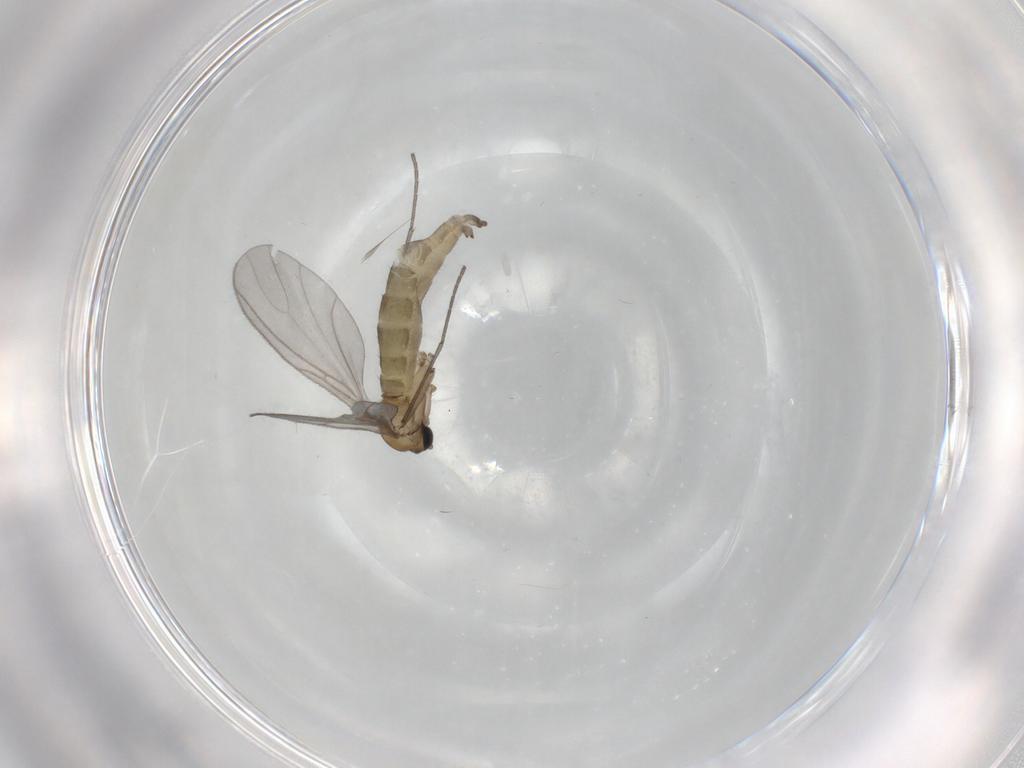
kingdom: Animalia
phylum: Arthropoda
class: Insecta
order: Diptera
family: Sciaridae
